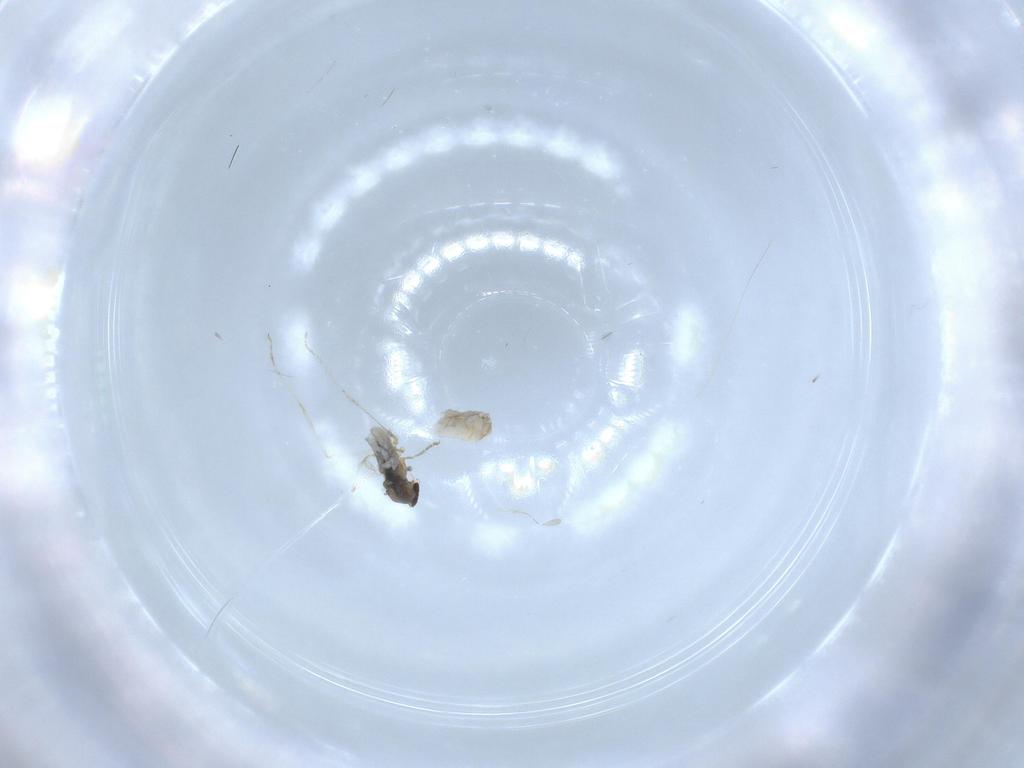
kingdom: Animalia
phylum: Arthropoda
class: Insecta
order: Diptera
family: Cecidomyiidae
